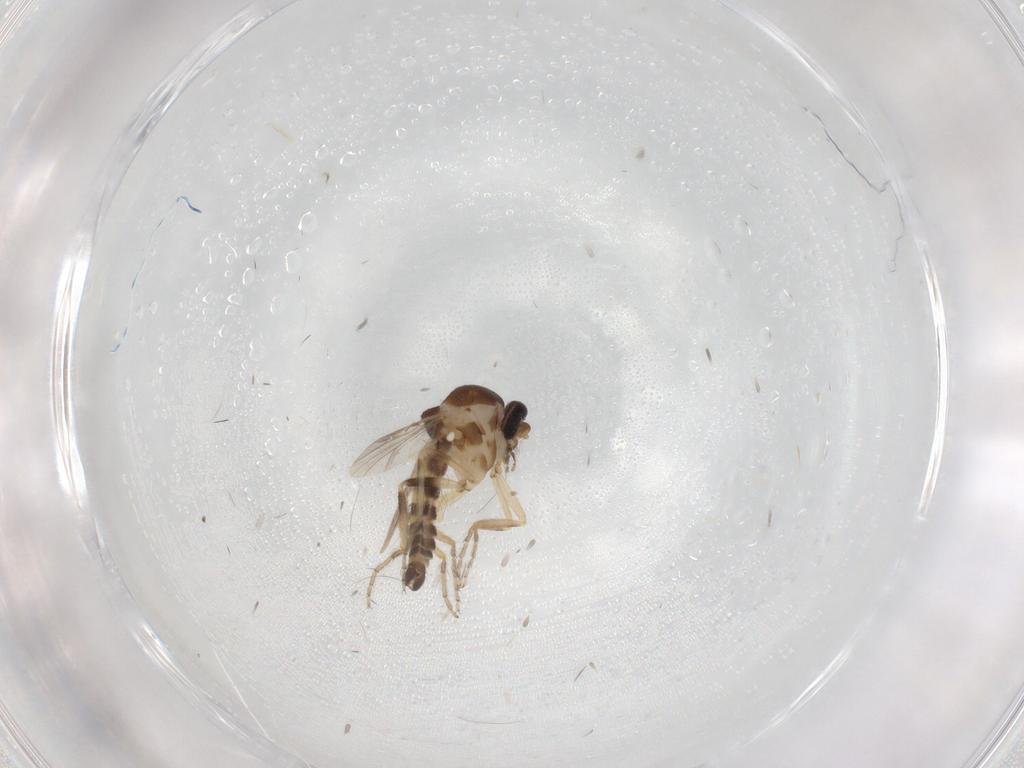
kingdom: Animalia
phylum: Arthropoda
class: Insecta
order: Diptera
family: Ceratopogonidae
